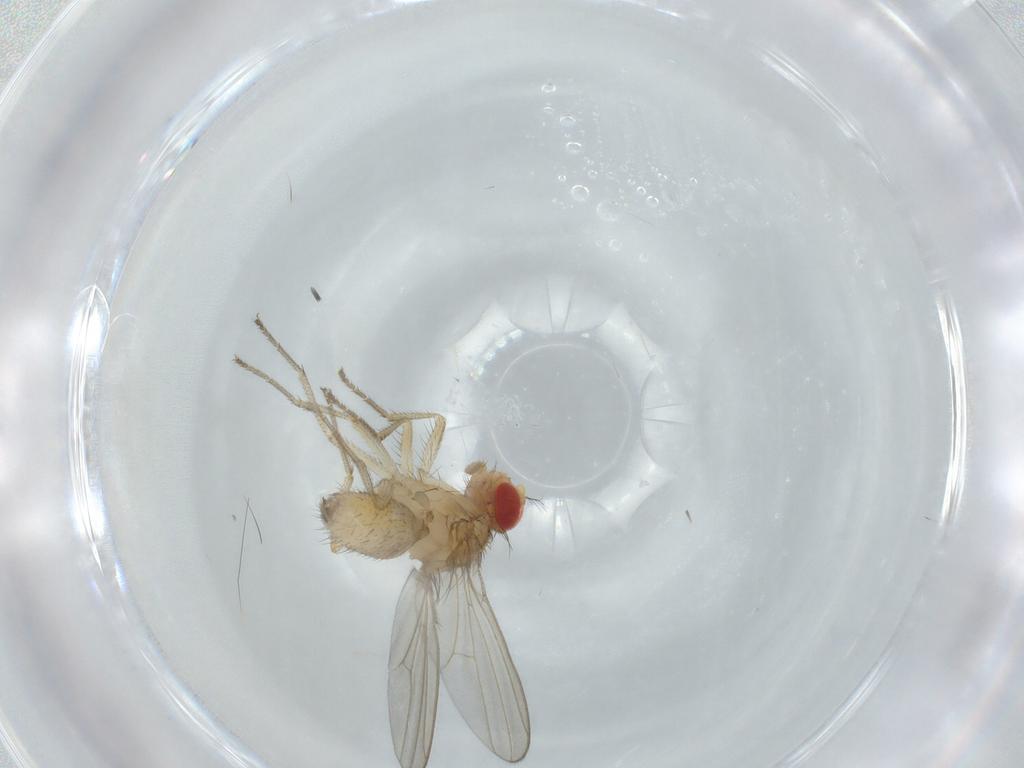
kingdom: Animalia
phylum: Arthropoda
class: Insecta
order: Diptera
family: Drosophilidae
